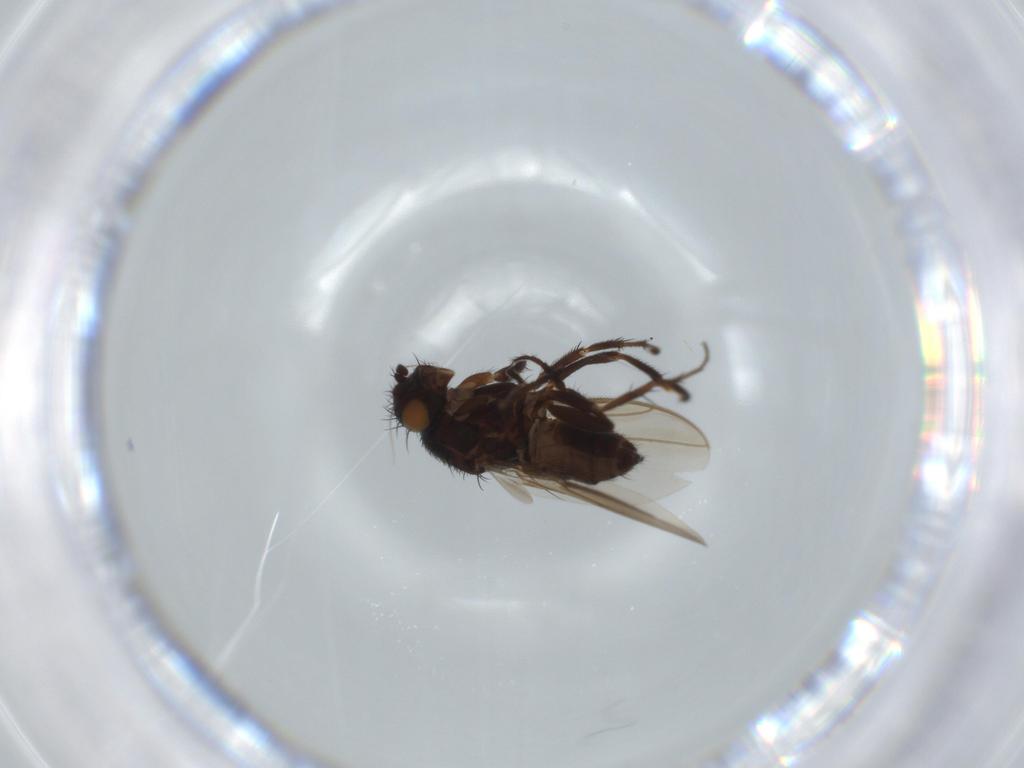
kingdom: Animalia
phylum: Arthropoda
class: Insecta
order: Diptera
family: Sphaeroceridae
